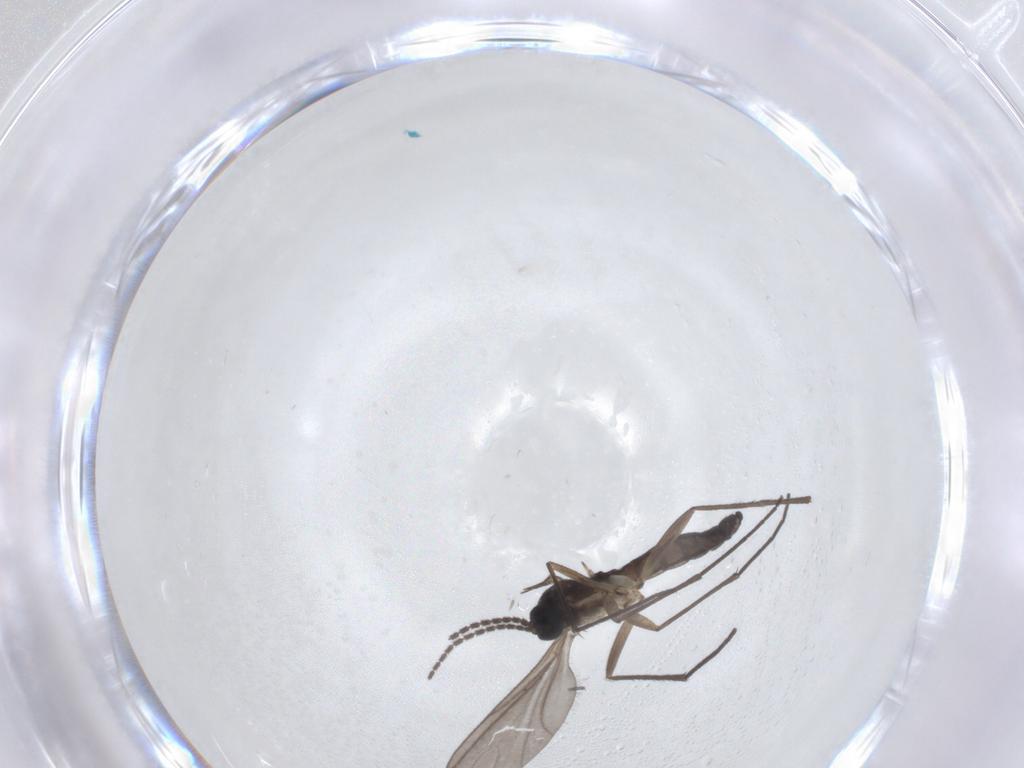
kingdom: Animalia
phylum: Arthropoda
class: Insecta
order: Diptera
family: Sciaridae
